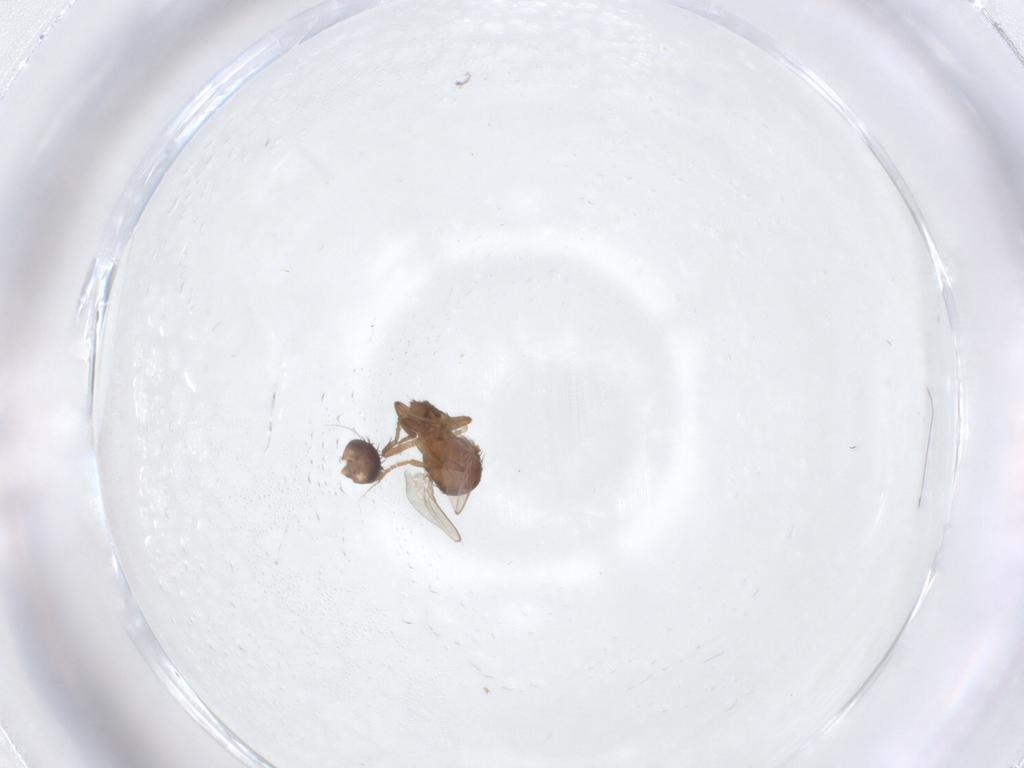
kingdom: Animalia
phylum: Arthropoda
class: Insecta
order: Diptera
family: Sphaeroceridae
